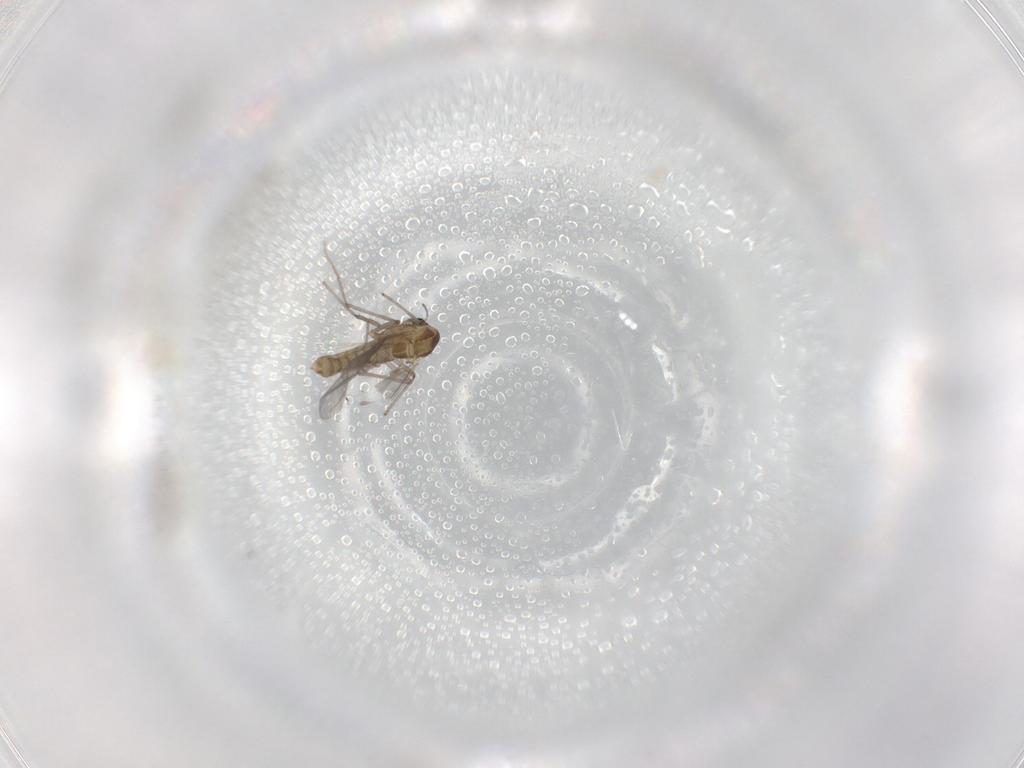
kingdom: Animalia
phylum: Arthropoda
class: Insecta
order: Diptera
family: Chironomidae
